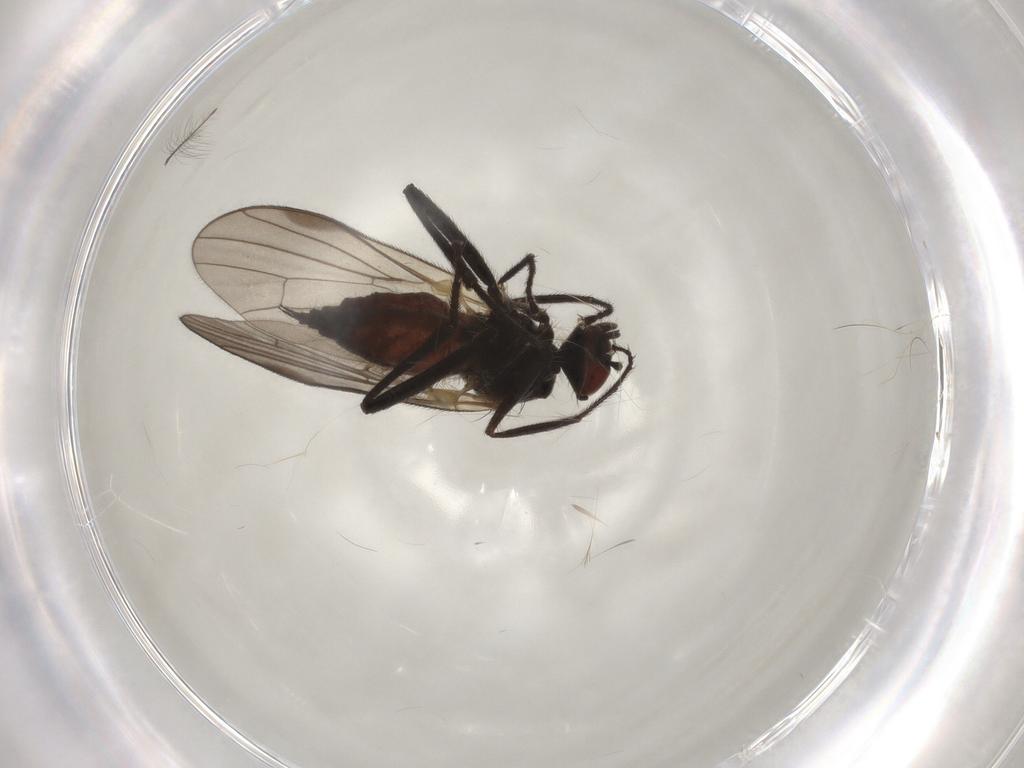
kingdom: Animalia
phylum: Arthropoda
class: Insecta
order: Diptera
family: Hybotidae
